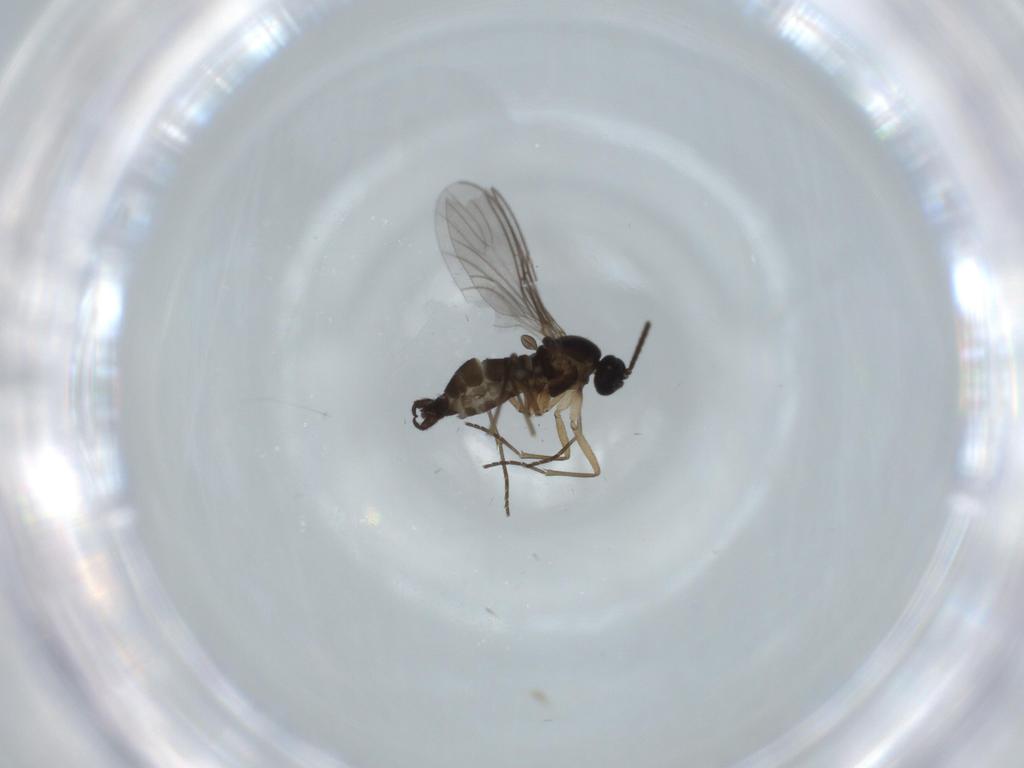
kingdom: Animalia
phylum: Arthropoda
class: Insecta
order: Diptera
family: Sciaridae
